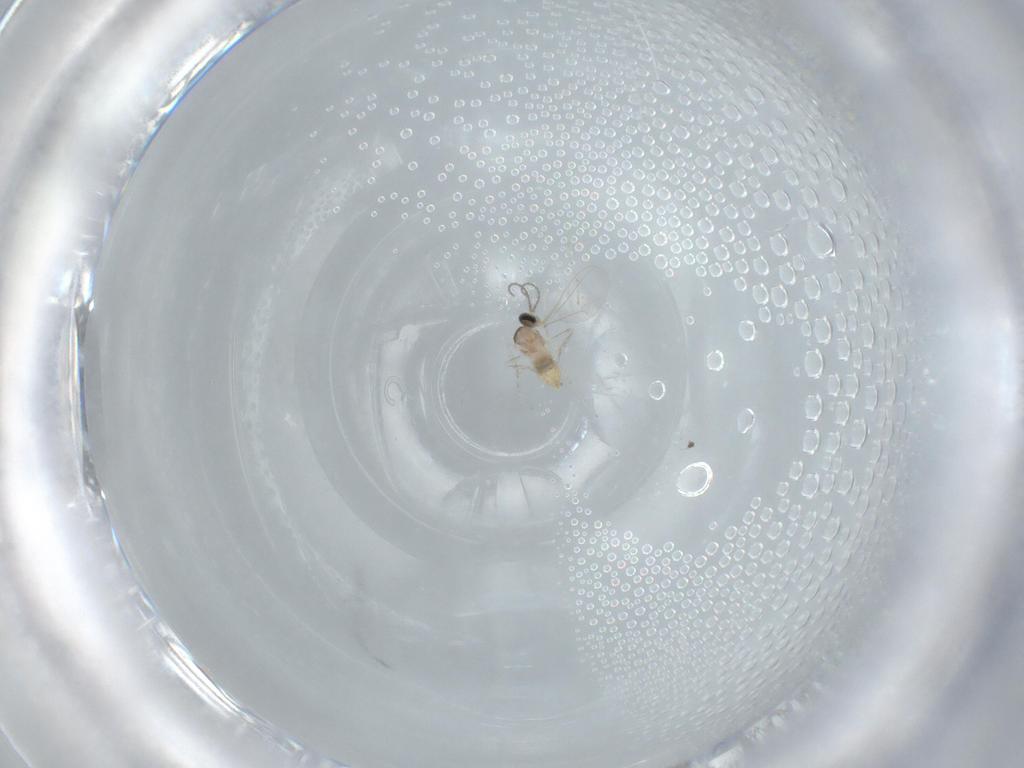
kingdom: Animalia
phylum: Arthropoda
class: Insecta
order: Diptera
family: Cecidomyiidae
